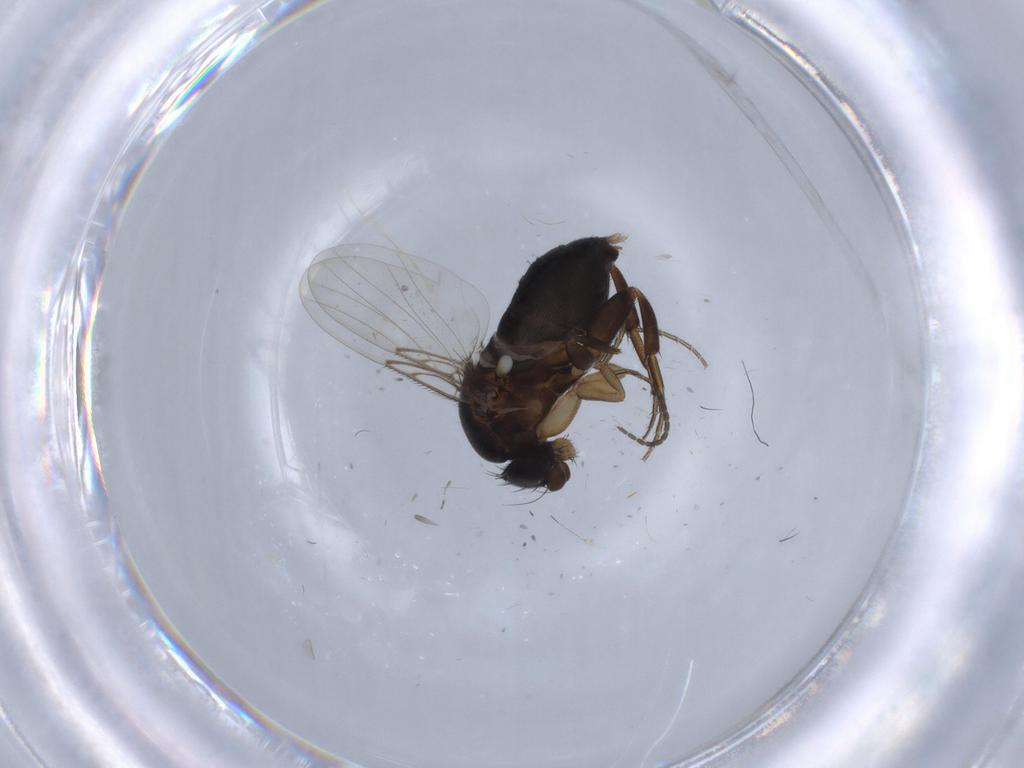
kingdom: Animalia
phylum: Arthropoda
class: Insecta
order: Diptera
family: Phoridae
